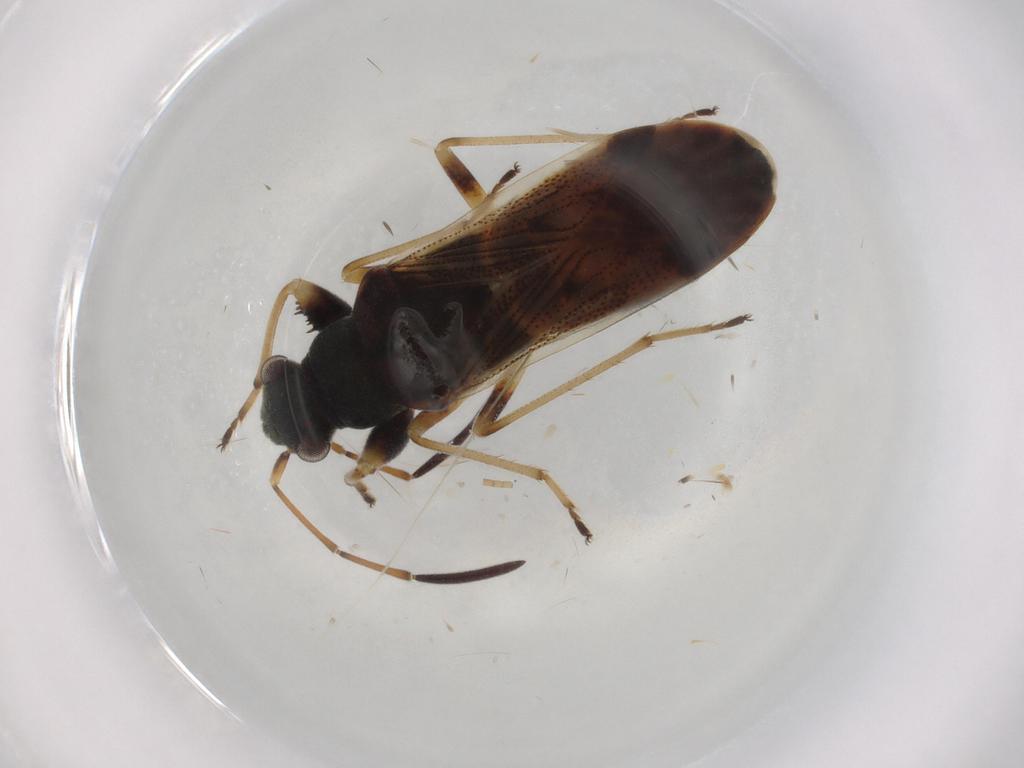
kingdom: Animalia
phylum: Arthropoda
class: Insecta
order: Hemiptera
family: Rhyparochromidae
